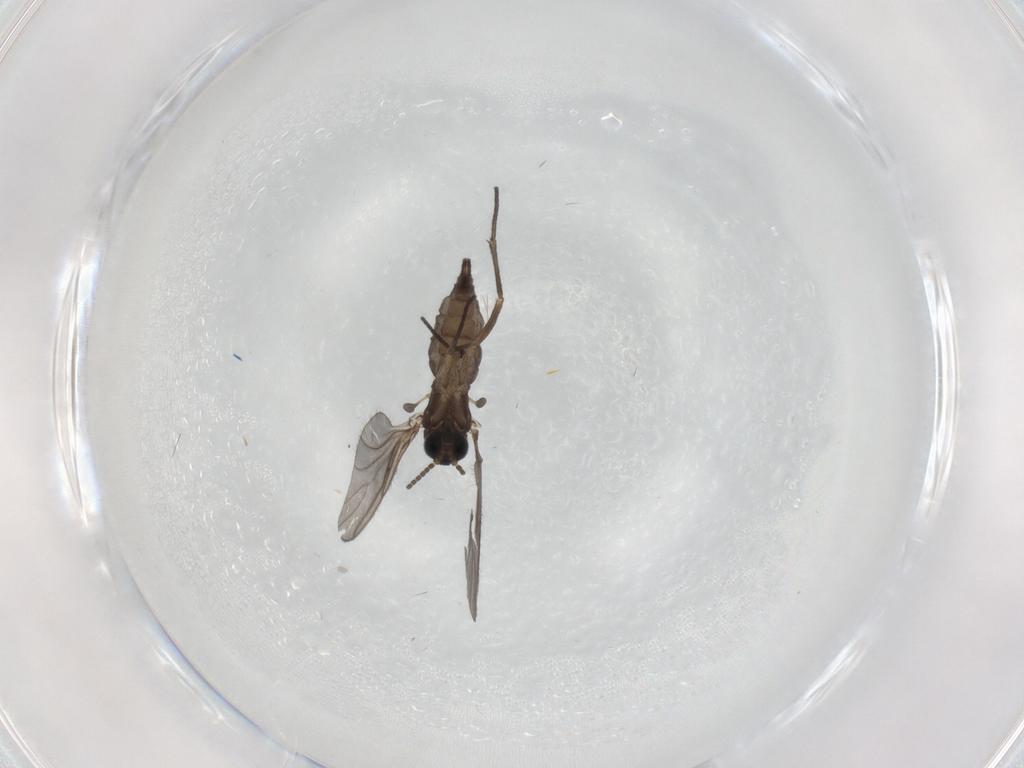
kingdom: Animalia
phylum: Arthropoda
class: Insecta
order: Diptera
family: Sciaridae
